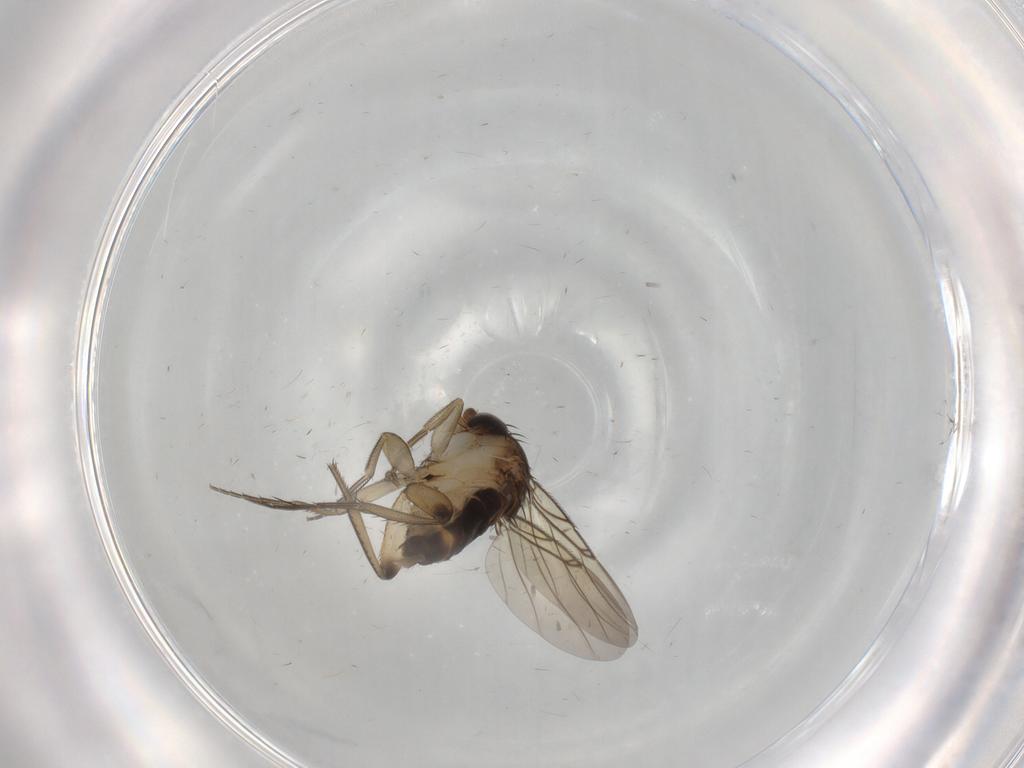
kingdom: Animalia
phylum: Arthropoda
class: Insecta
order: Diptera
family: Phoridae
